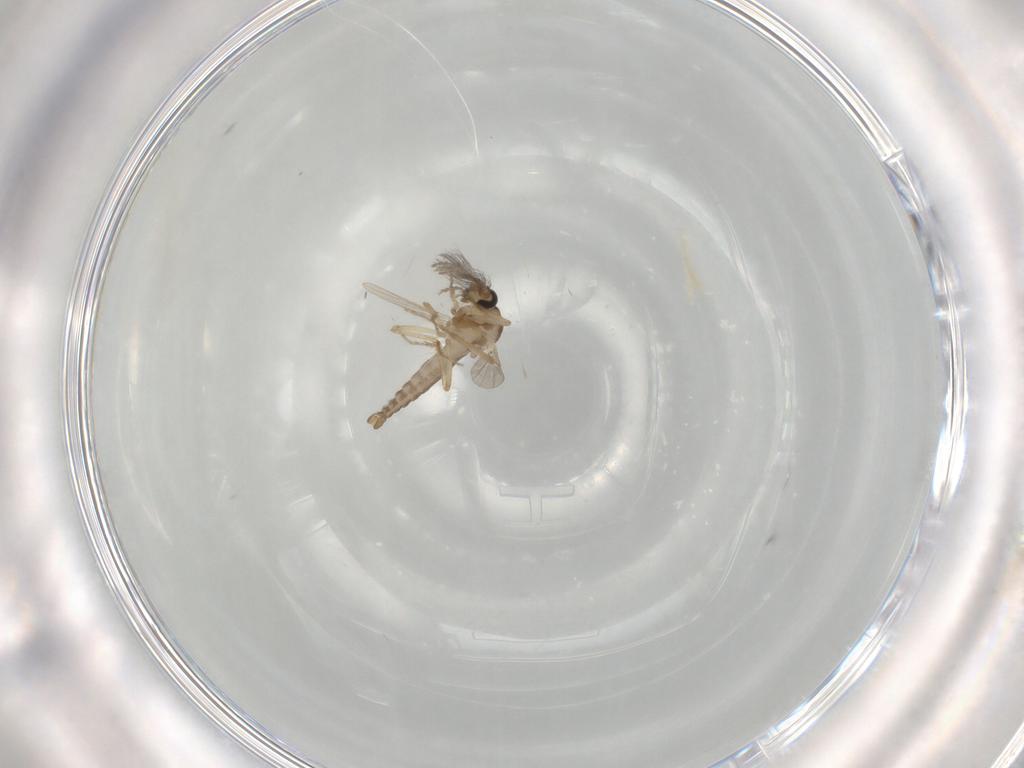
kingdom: Animalia
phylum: Arthropoda
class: Insecta
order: Diptera
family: Ceratopogonidae
